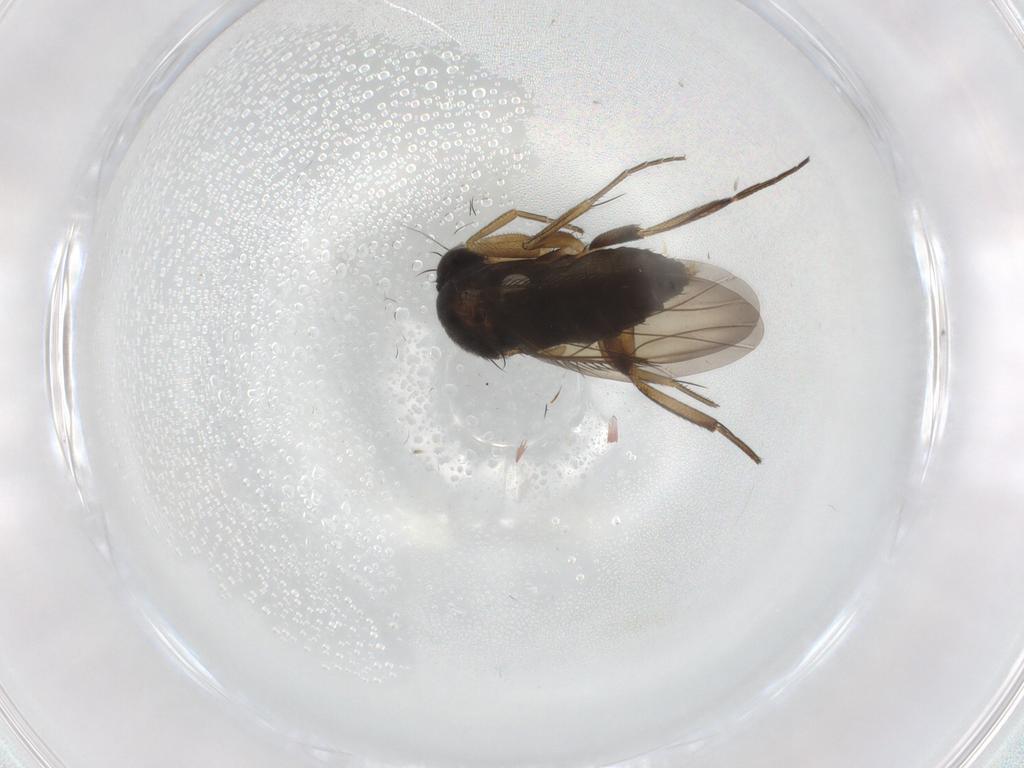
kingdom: Animalia
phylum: Arthropoda
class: Insecta
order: Diptera
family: Phoridae
